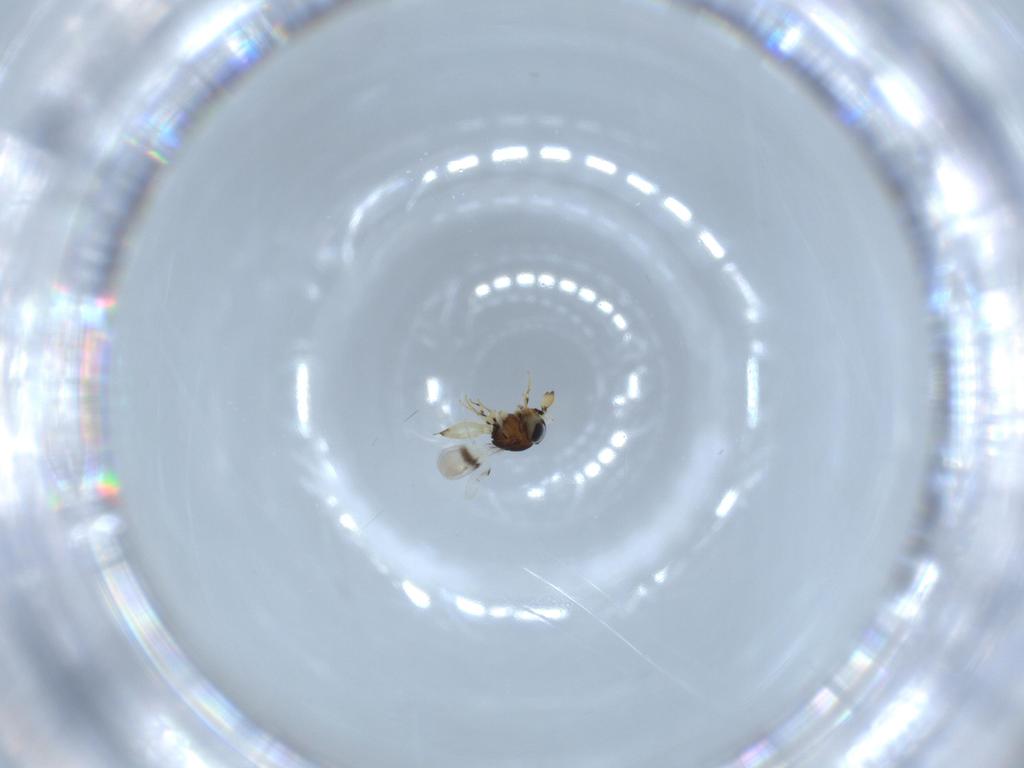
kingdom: Animalia
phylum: Arthropoda
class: Insecta
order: Hymenoptera
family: Scelionidae
